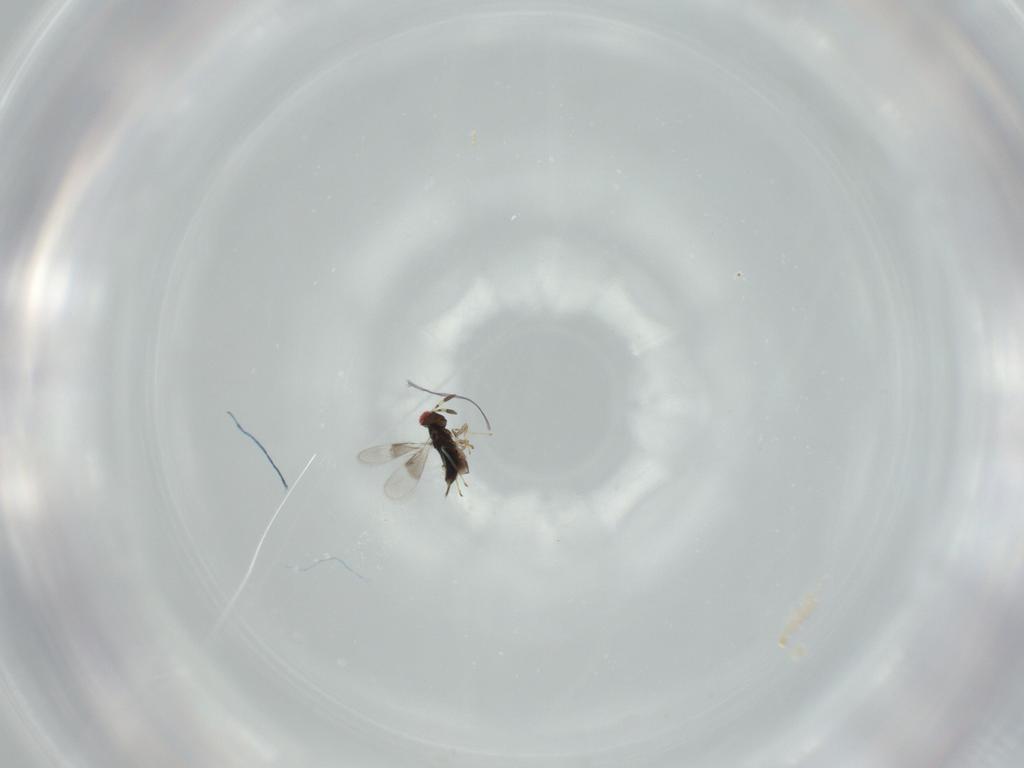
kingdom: Animalia
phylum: Arthropoda
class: Insecta
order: Hymenoptera
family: Azotidae
